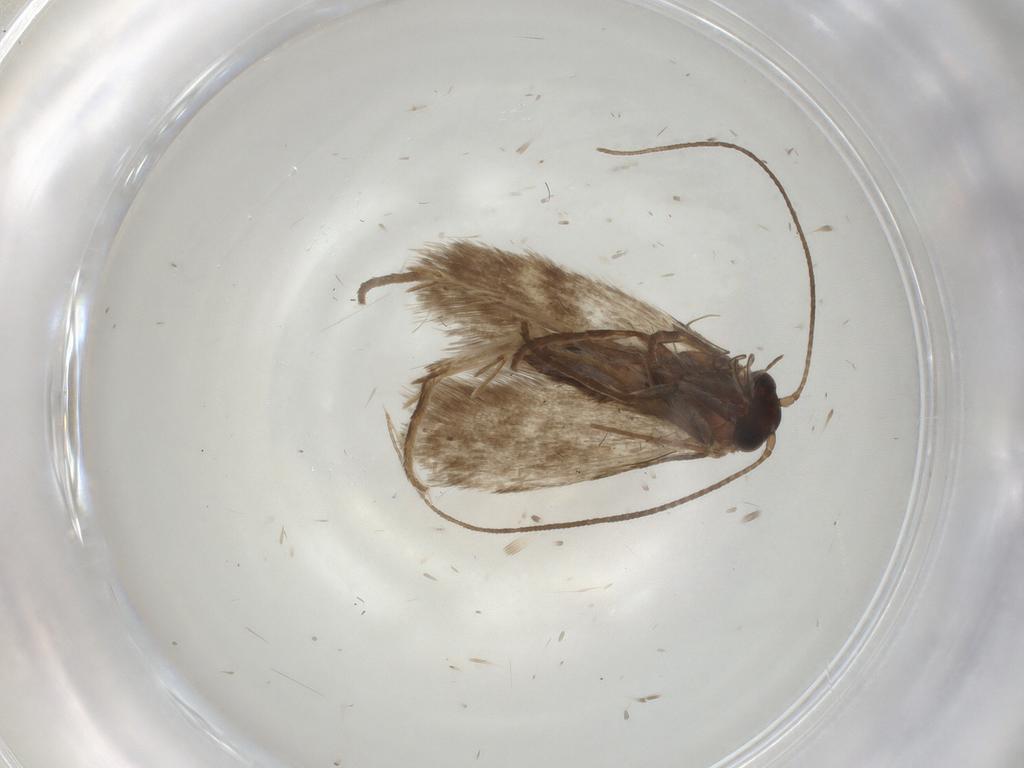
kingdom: Animalia
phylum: Arthropoda
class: Insecta
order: Lepidoptera
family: Adelidae
